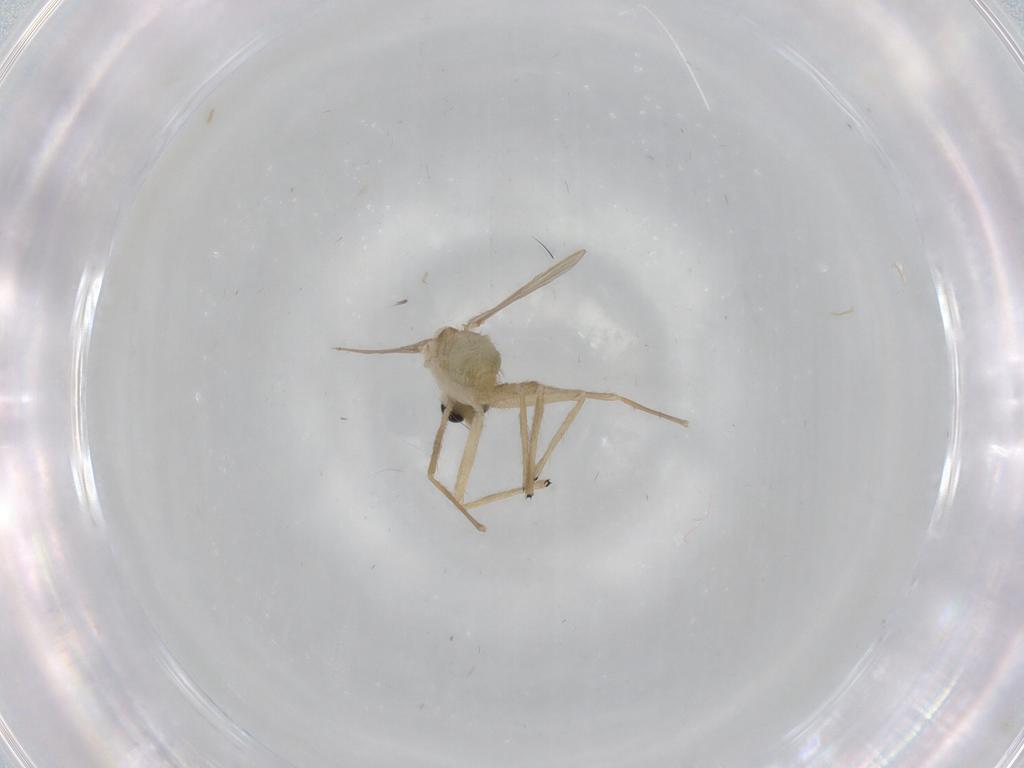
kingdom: Animalia
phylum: Arthropoda
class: Insecta
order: Diptera
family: Chironomidae
